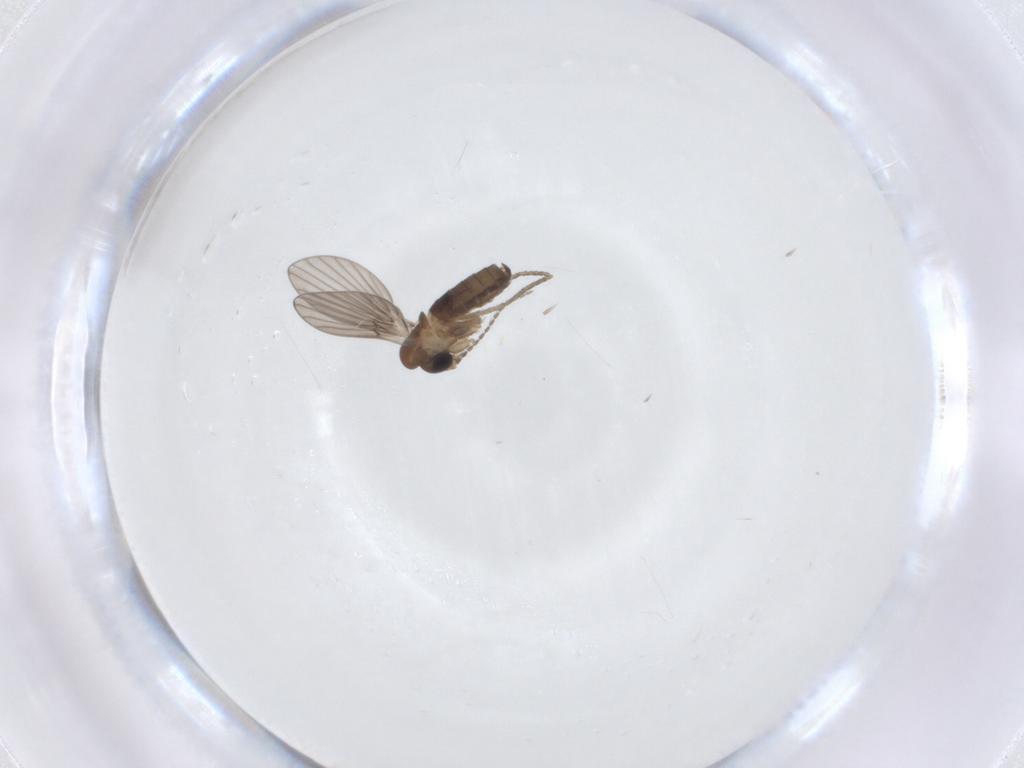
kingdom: Animalia
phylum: Arthropoda
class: Insecta
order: Diptera
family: Psychodidae
